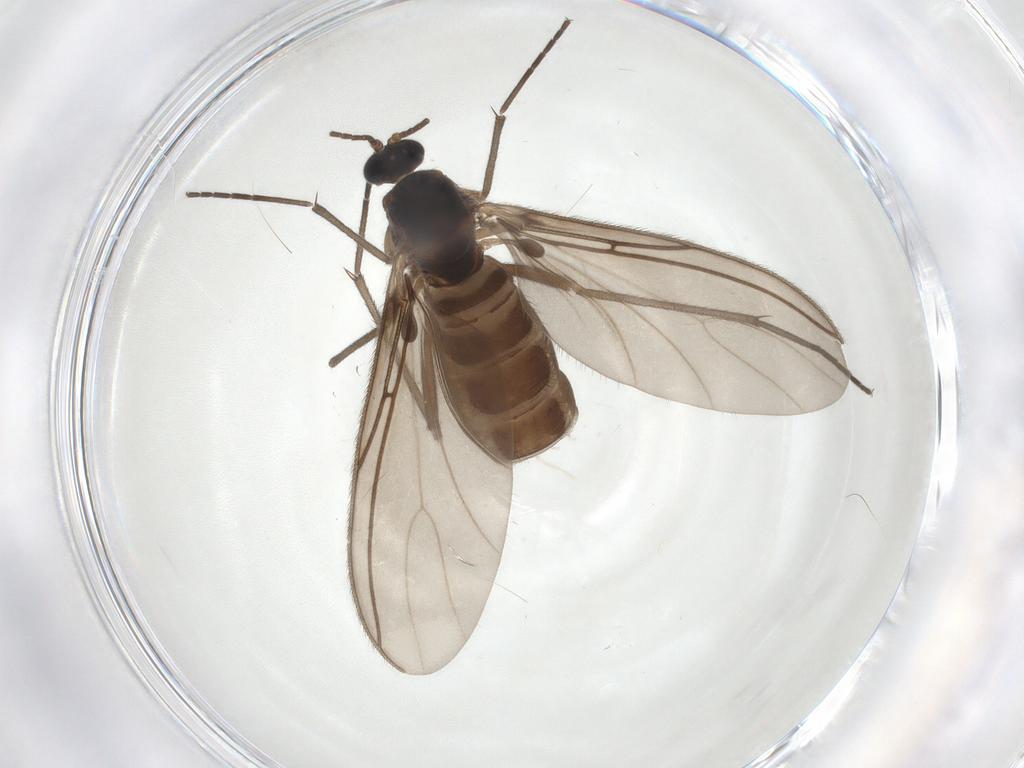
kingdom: Animalia
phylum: Arthropoda
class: Insecta
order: Diptera
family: Sciaridae
